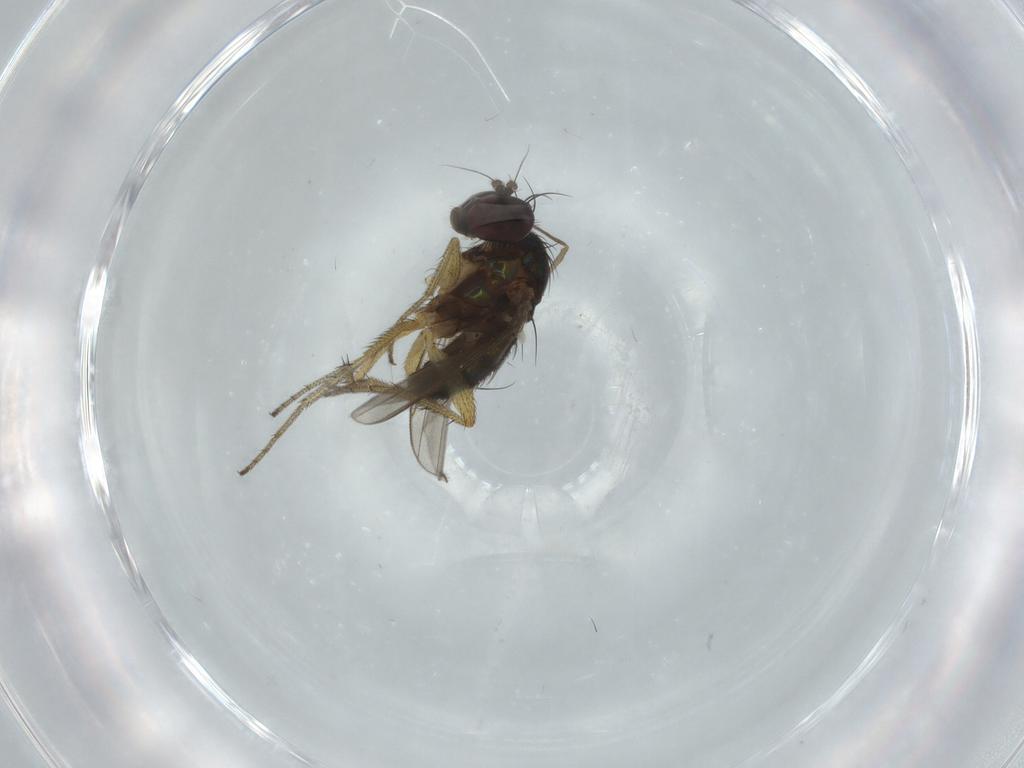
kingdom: Animalia
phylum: Arthropoda
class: Insecta
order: Diptera
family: Cecidomyiidae
